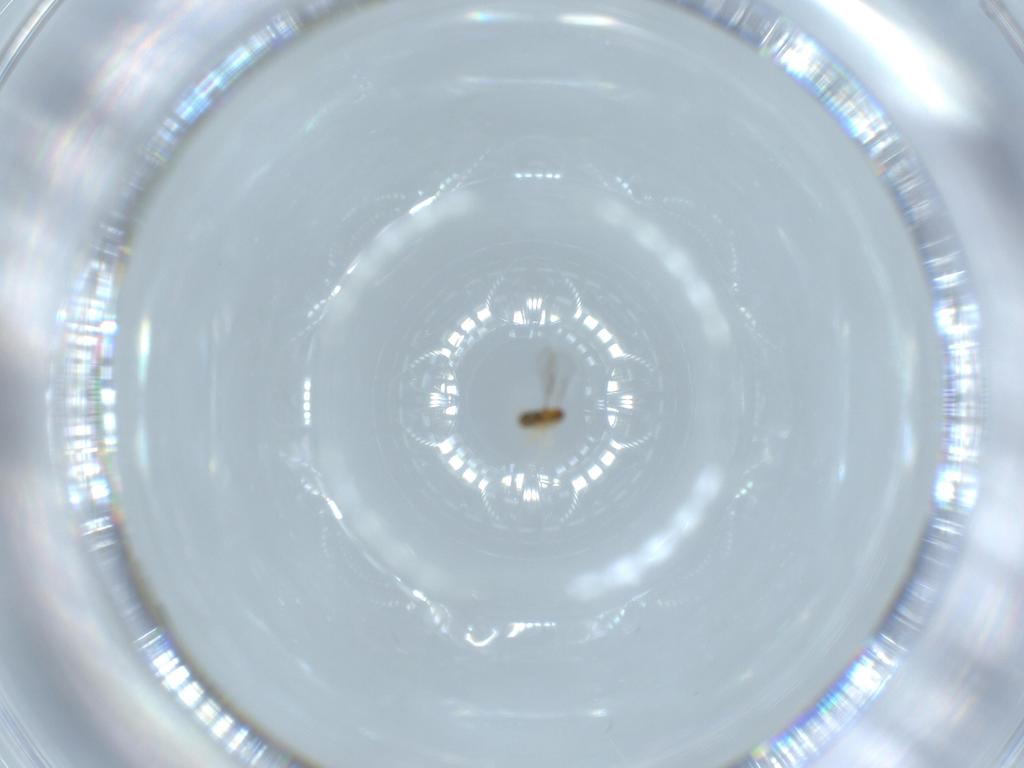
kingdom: Animalia
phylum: Arthropoda
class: Insecta
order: Hymenoptera
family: Aphelinidae
